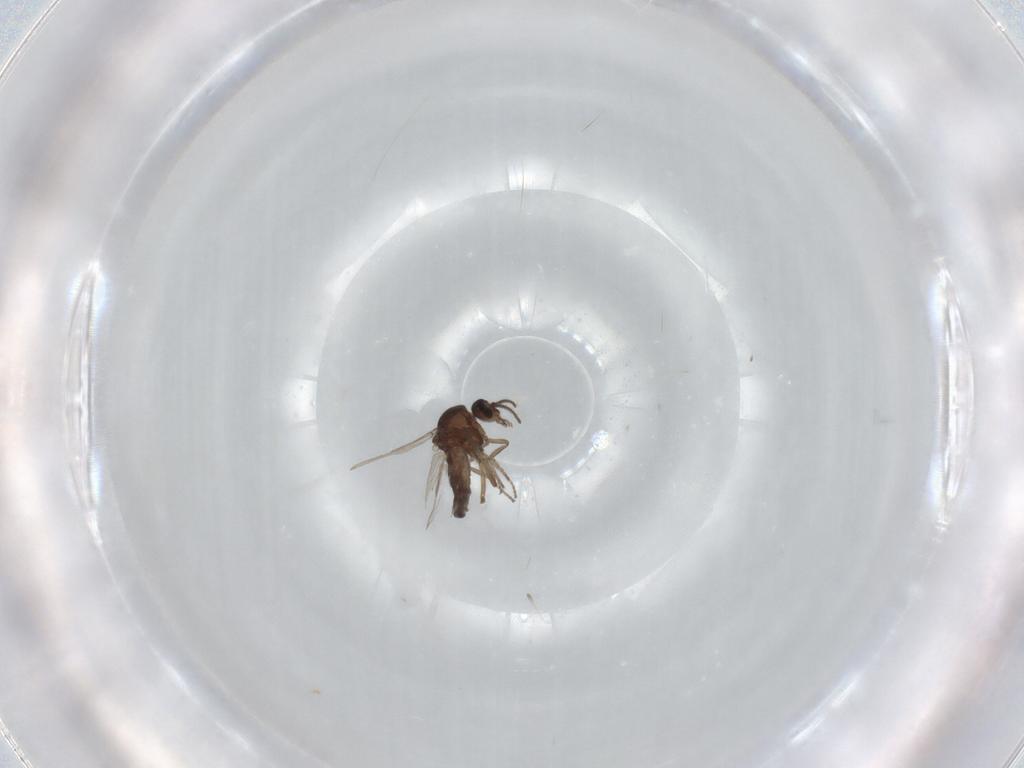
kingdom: Animalia
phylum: Arthropoda
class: Insecta
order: Diptera
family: Ceratopogonidae
